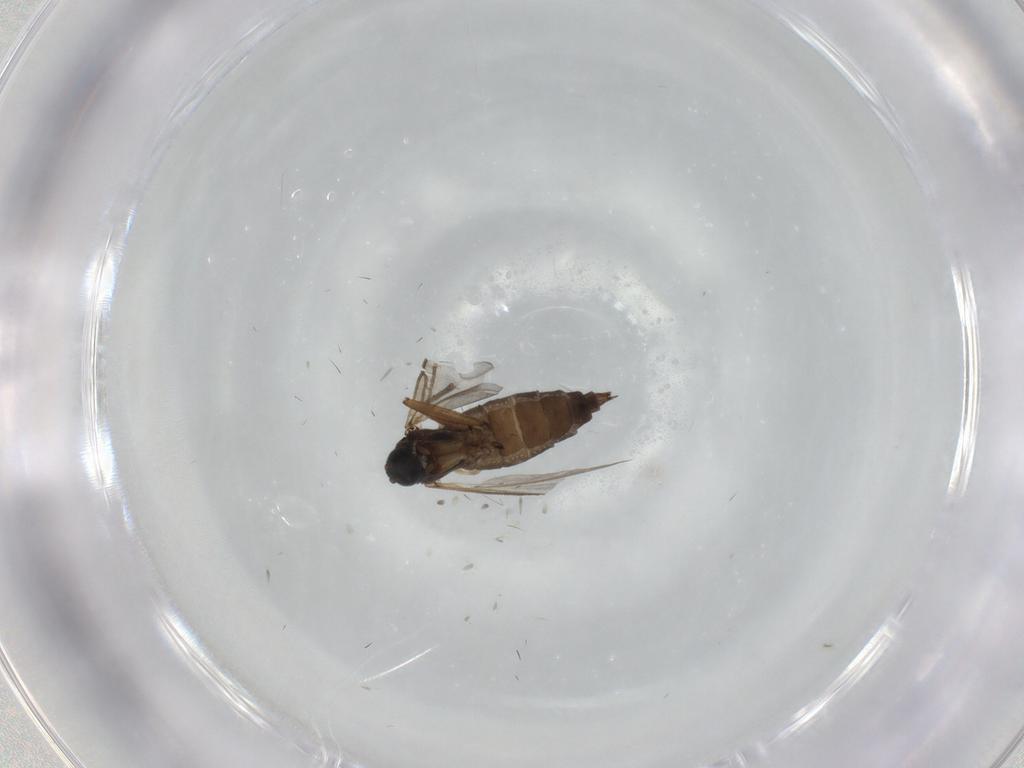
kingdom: Animalia
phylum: Arthropoda
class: Insecta
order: Diptera
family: Sciaridae
